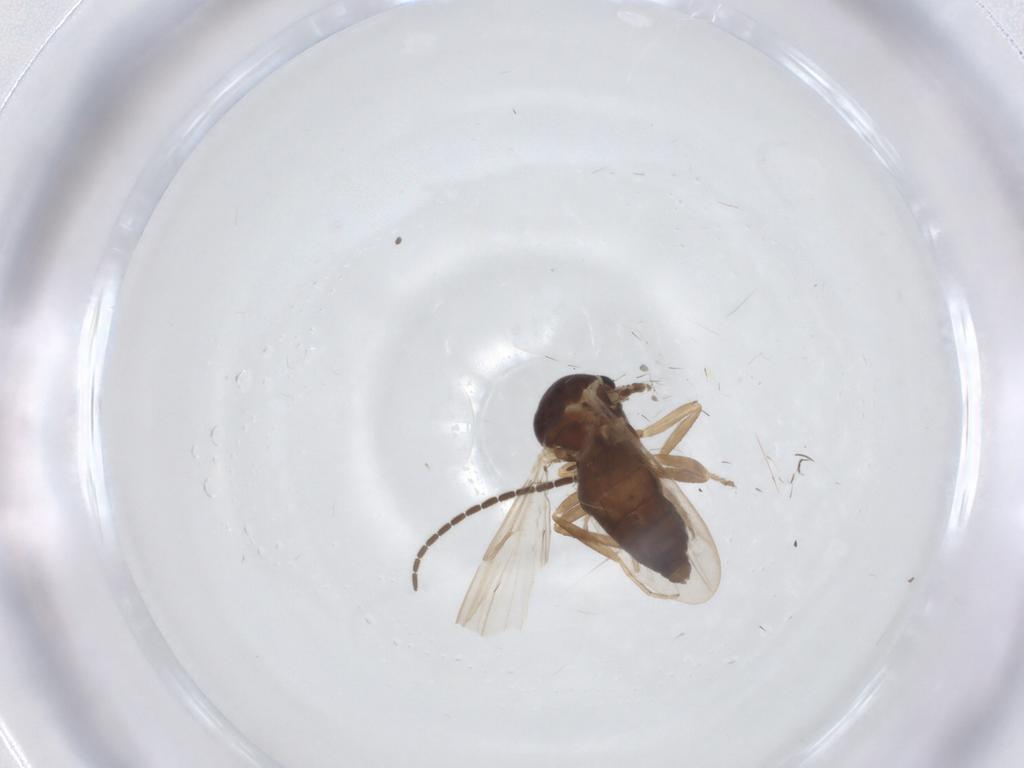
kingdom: Animalia
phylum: Arthropoda
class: Insecta
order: Diptera
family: Ceratopogonidae
